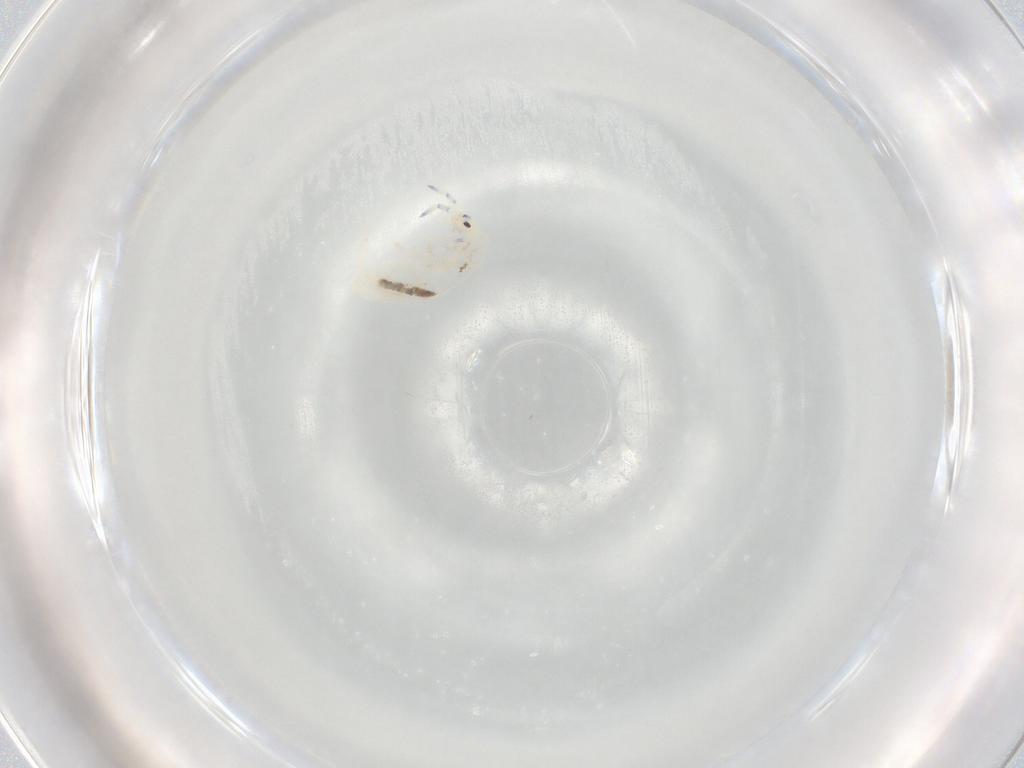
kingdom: Animalia
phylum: Arthropoda
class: Collembola
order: Entomobryomorpha
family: Entomobryidae
